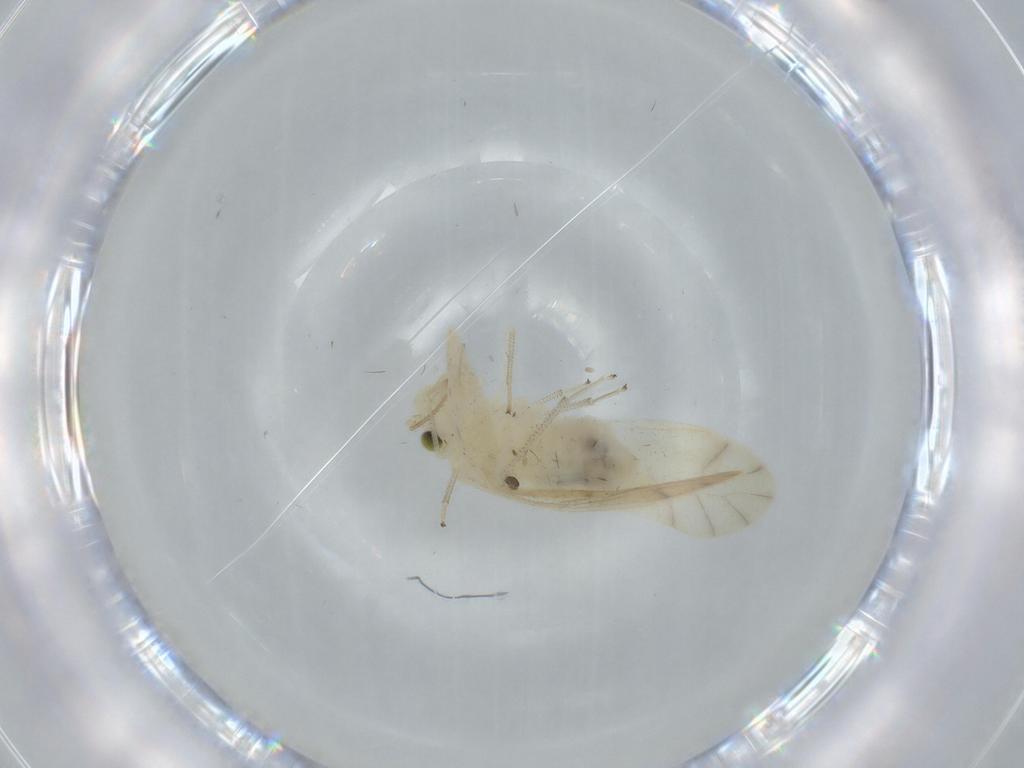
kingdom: Animalia
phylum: Arthropoda
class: Insecta
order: Psocodea
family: Caeciliusidae
